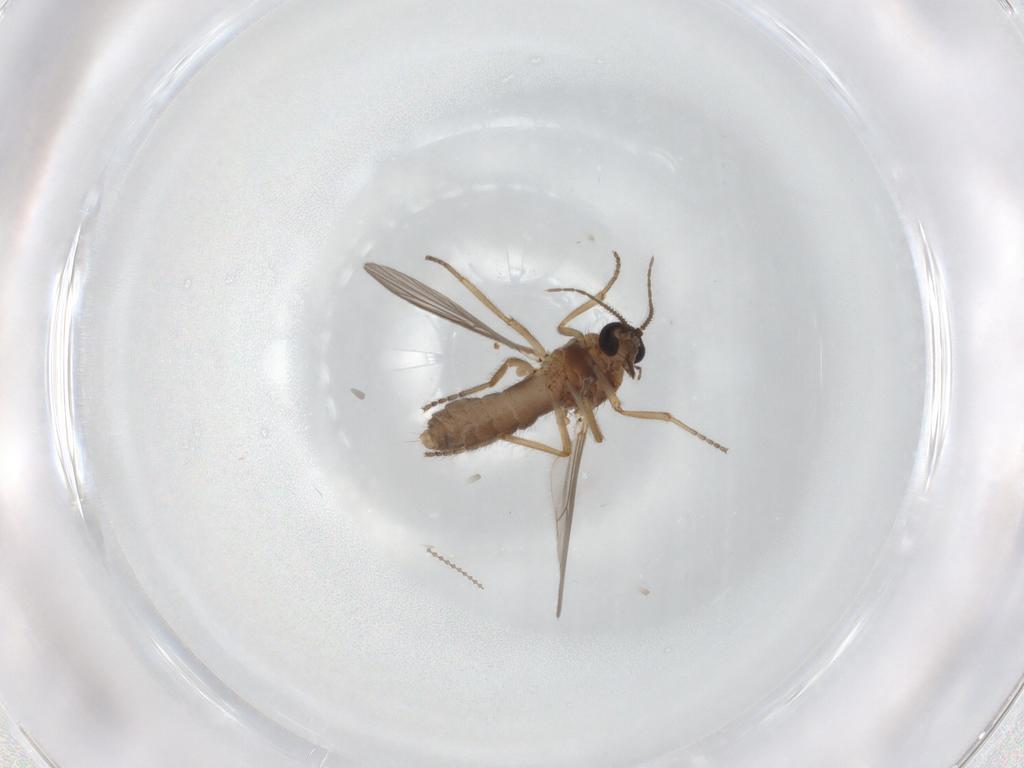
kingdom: Animalia
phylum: Arthropoda
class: Insecta
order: Diptera
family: Ceratopogonidae
